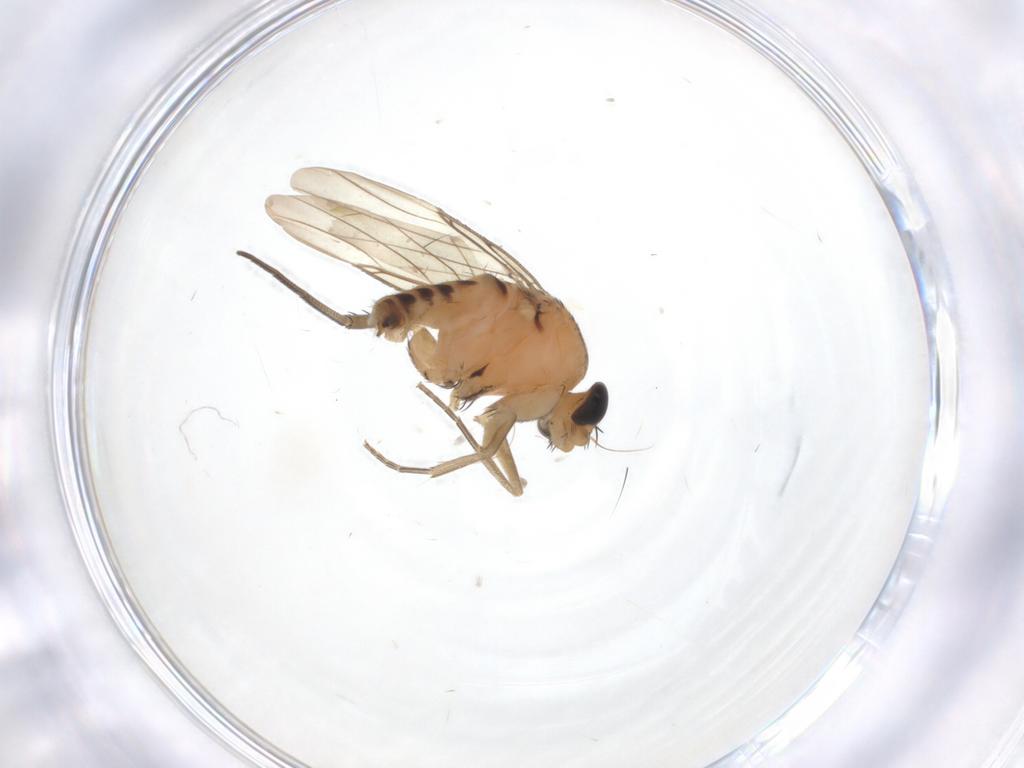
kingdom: Animalia
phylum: Arthropoda
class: Insecta
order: Diptera
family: Phoridae
